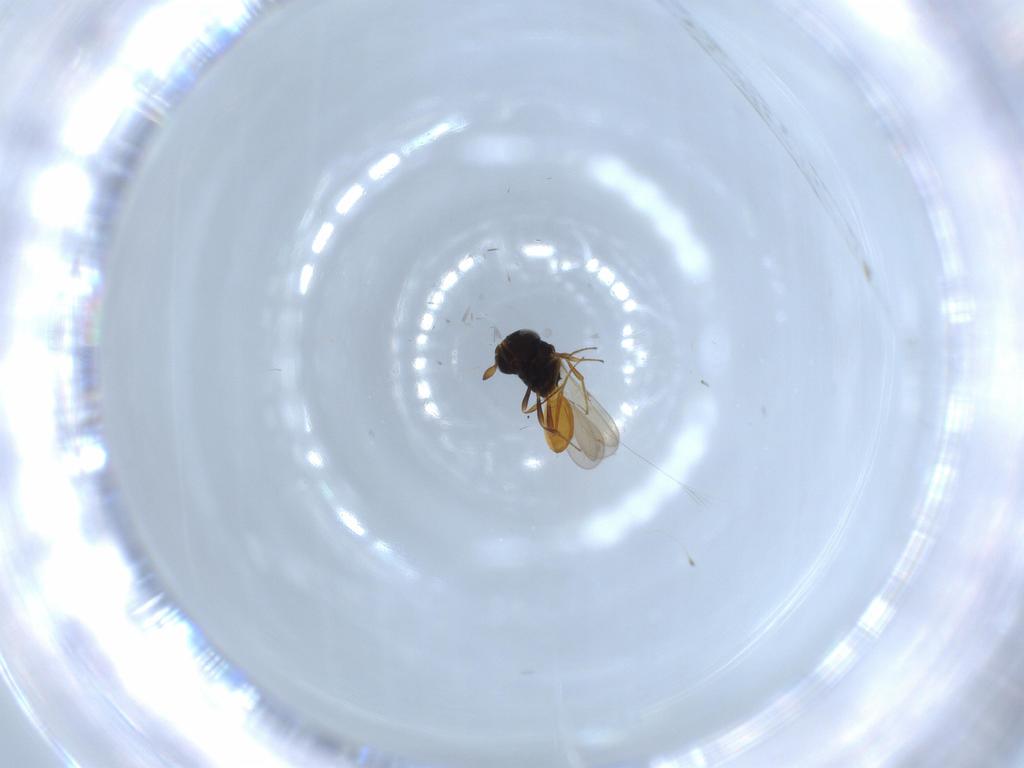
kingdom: Animalia
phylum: Arthropoda
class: Insecta
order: Hymenoptera
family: Scelionidae
